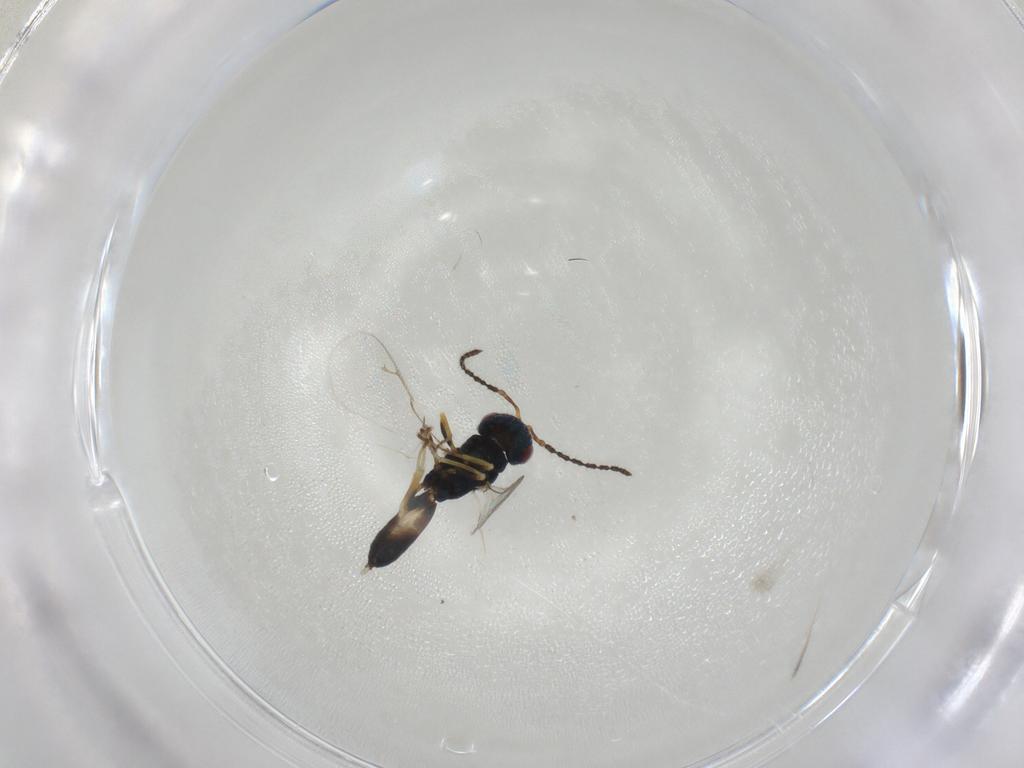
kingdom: Animalia
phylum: Arthropoda
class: Insecta
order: Hymenoptera
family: Pteromalidae
